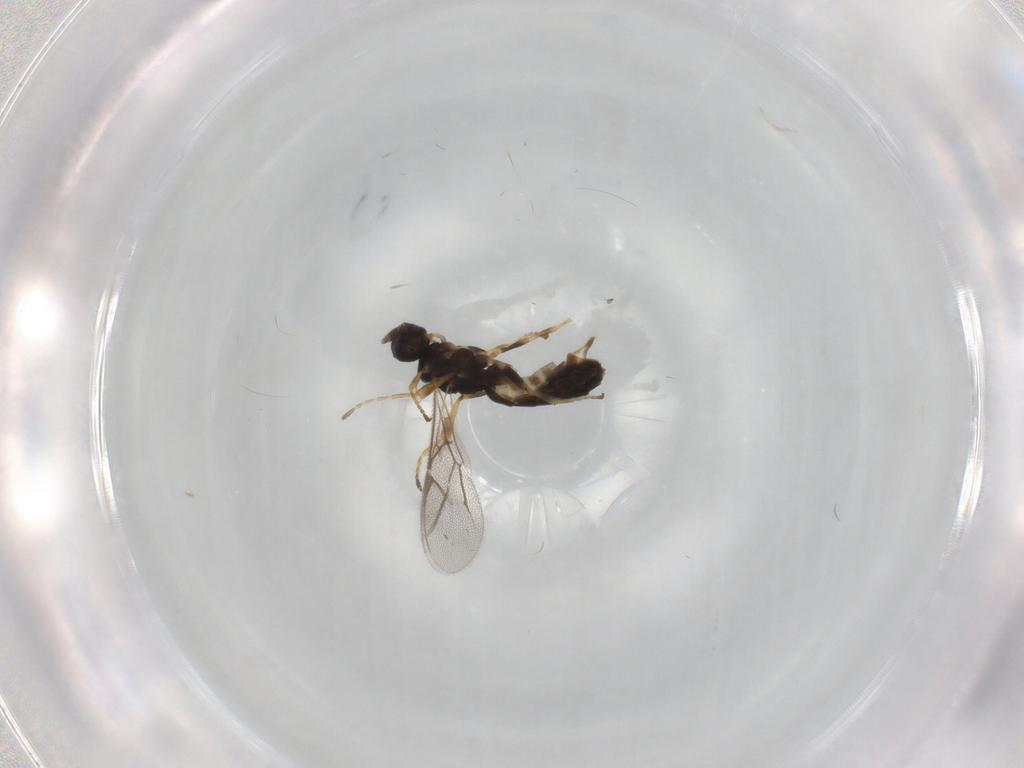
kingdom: Animalia
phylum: Arthropoda
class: Insecta
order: Hymenoptera
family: Ichneumonidae
